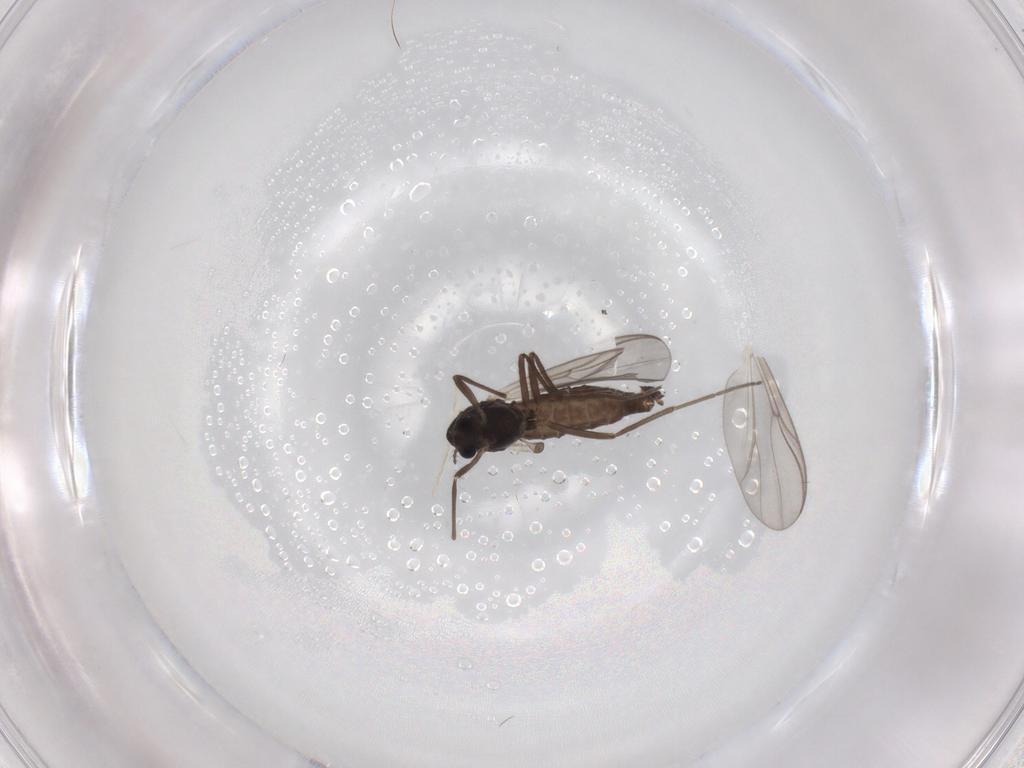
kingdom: Animalia
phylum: Arthropoda
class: Insecta
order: Diptera
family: Chironomidae
